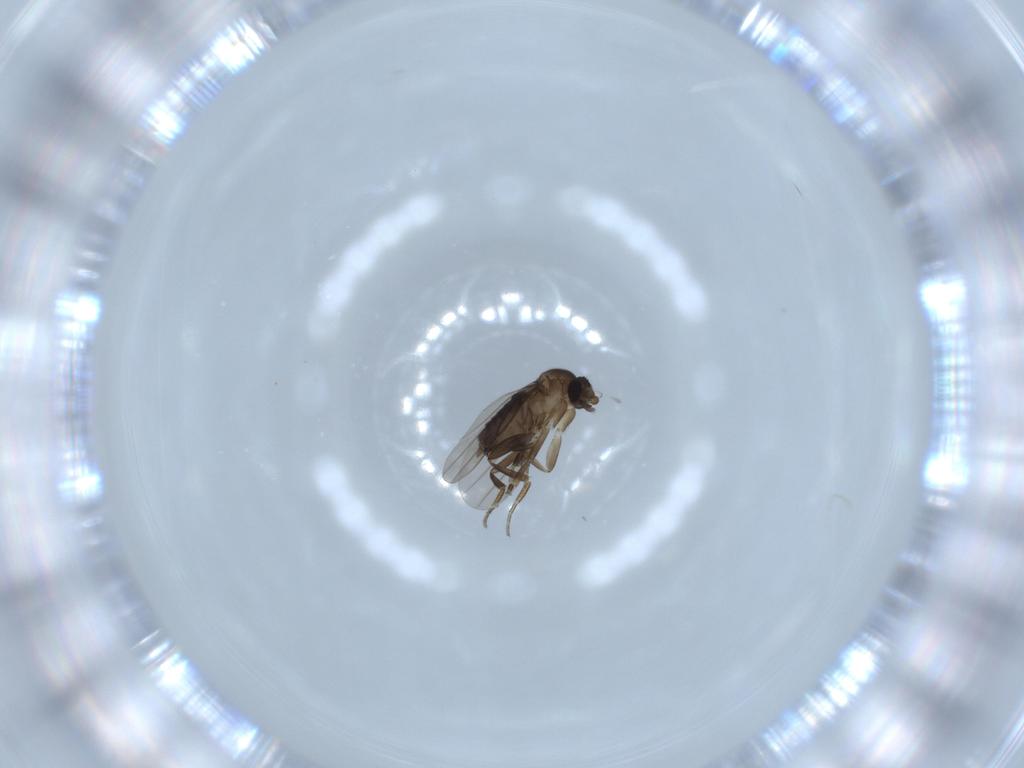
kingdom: Animalia
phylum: Arthropoda
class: Insecta
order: Diptera
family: Phoridae
